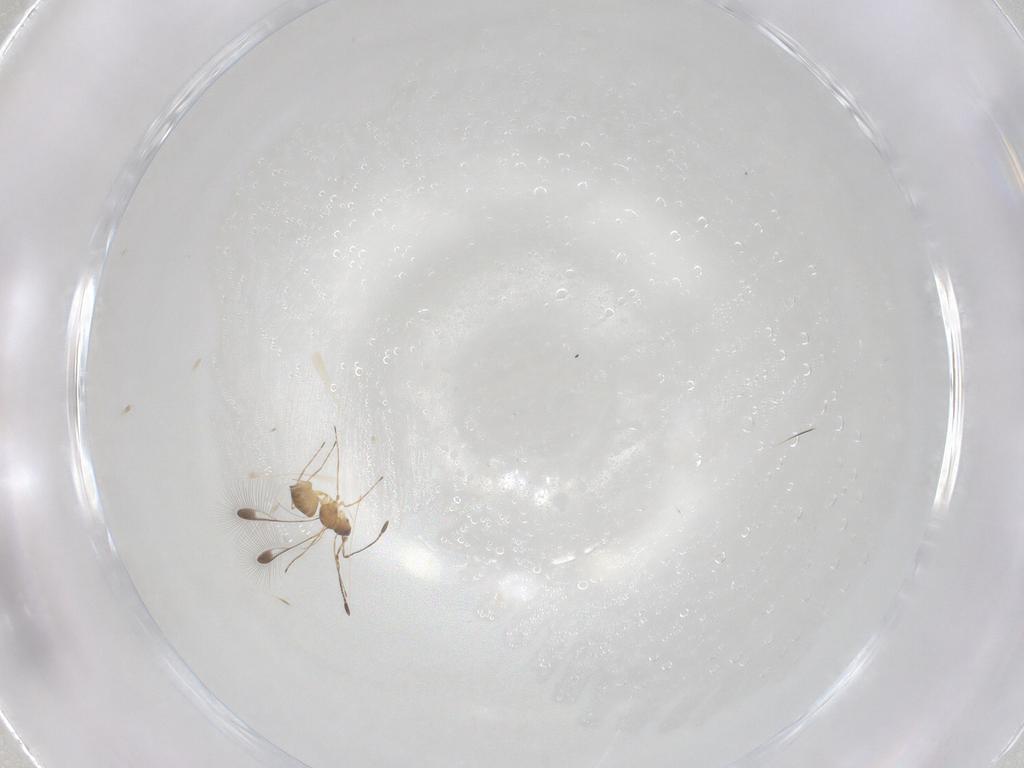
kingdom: Animalia
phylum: Arthropoda
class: Insecta
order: Hymenoptera
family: Mymaridae
